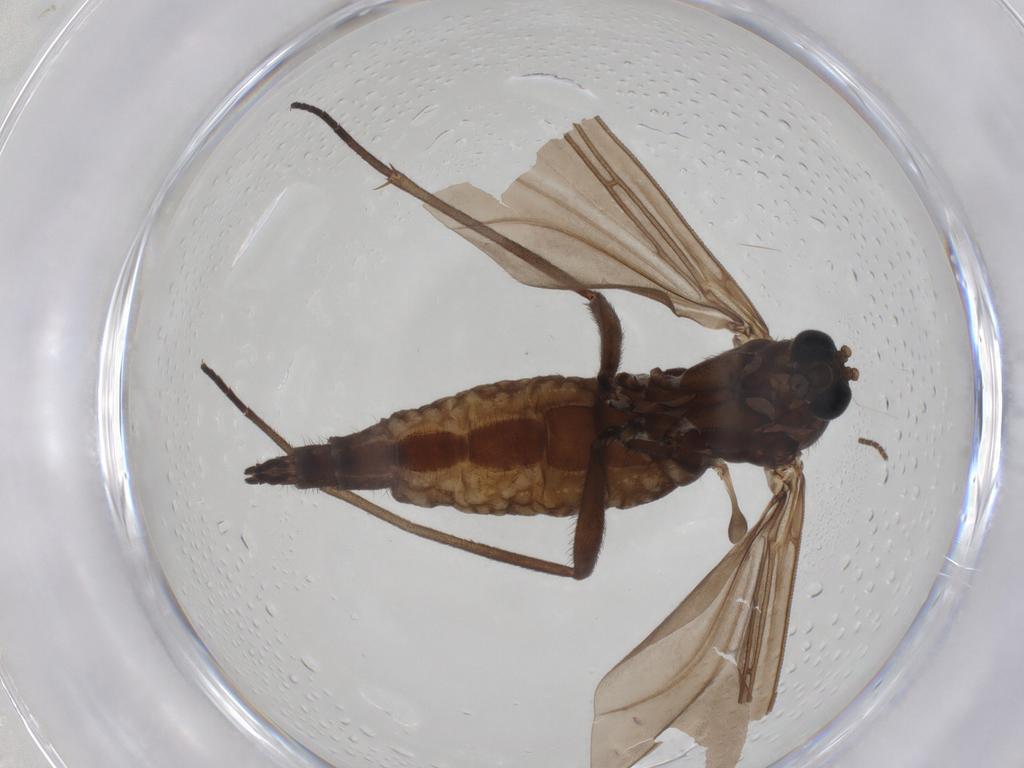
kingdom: Animalia
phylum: Arthropoda
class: Insecta
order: Diptera
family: Sciaridae
